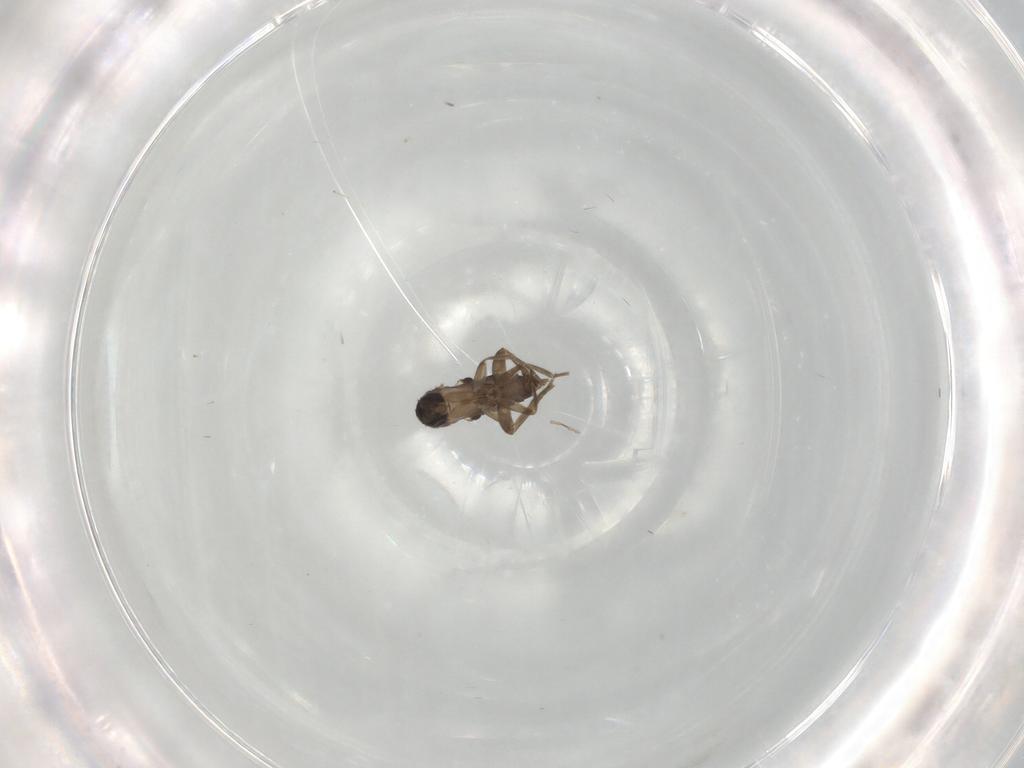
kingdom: Animalia
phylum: Arthropoda
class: Insecta
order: Diptera
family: Phoridae
